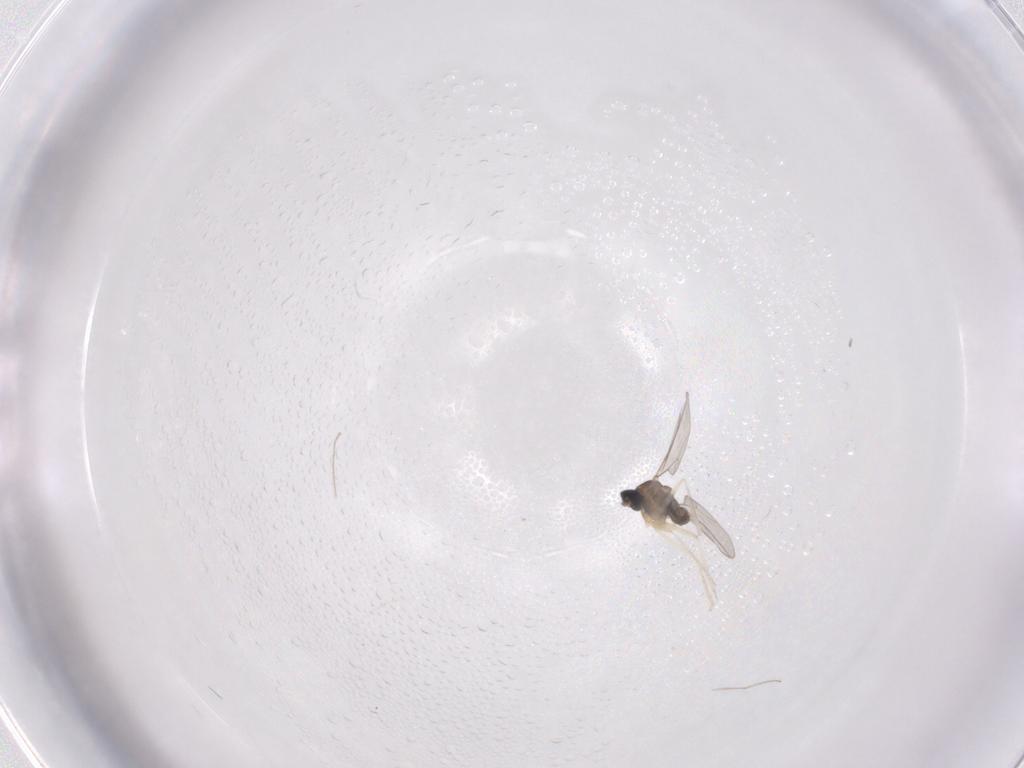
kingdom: Animalia
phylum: Arthropoda
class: Insecta
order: Diptera
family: Cecidomyiidae
